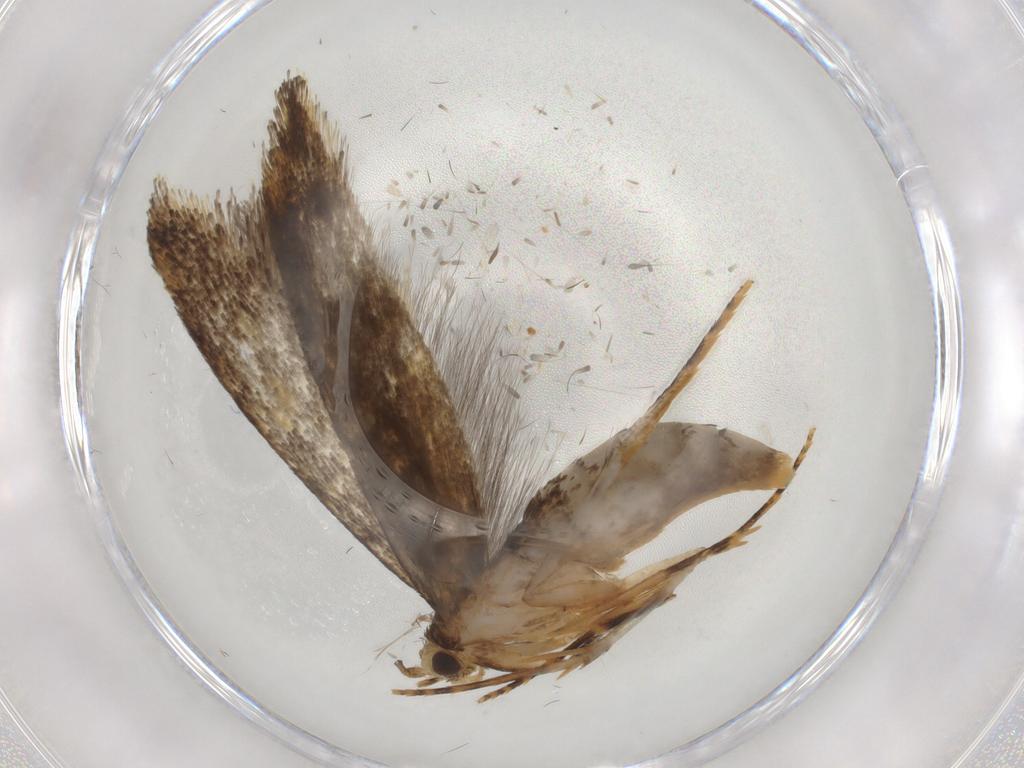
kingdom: Animalia
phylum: Arthropoda
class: Insecta
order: Lepidoptera
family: Tineidae
